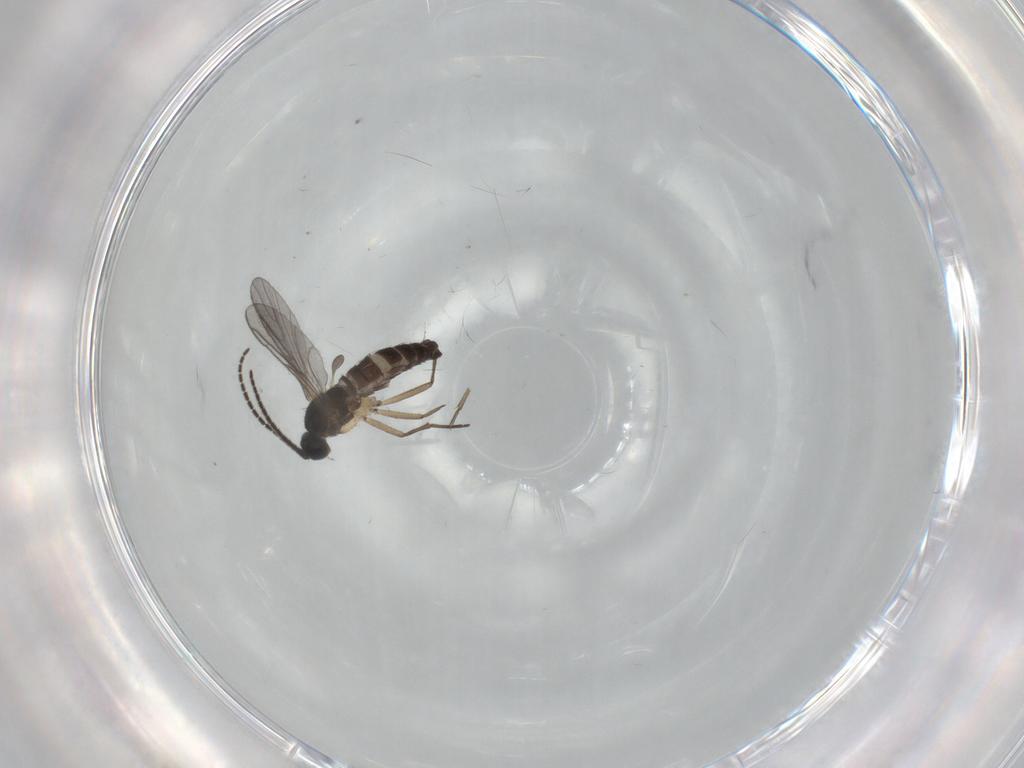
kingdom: Animalia
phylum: Arthropoda
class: Insecta
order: Diptera
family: Sciaridae
